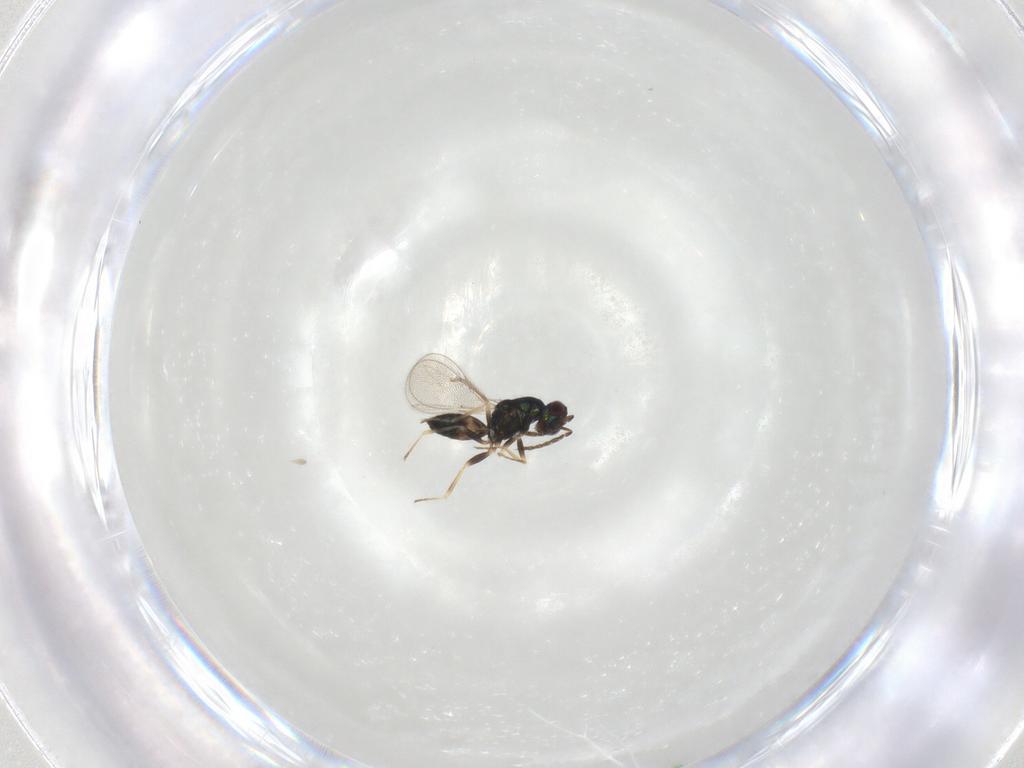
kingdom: Animalia
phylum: Arthropoda
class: Insecta
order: Hymenoptera
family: Eulophidae
